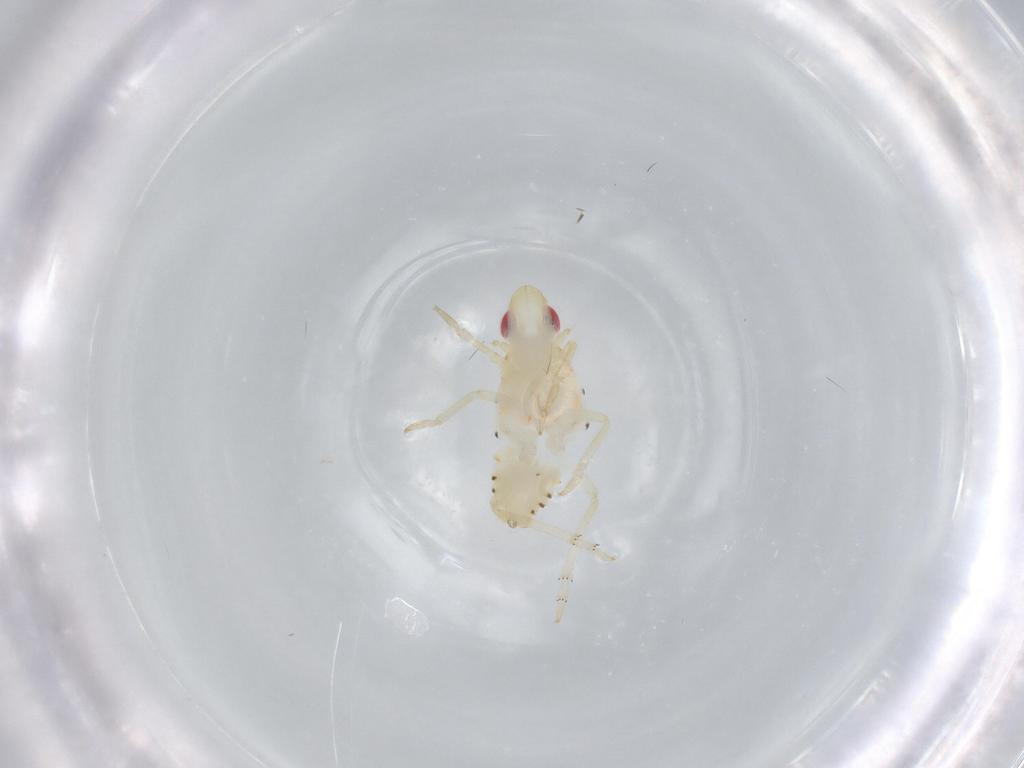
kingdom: Animalia
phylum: Arthropoda
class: Insecta
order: Hemiptera
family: Tropiduchidae
